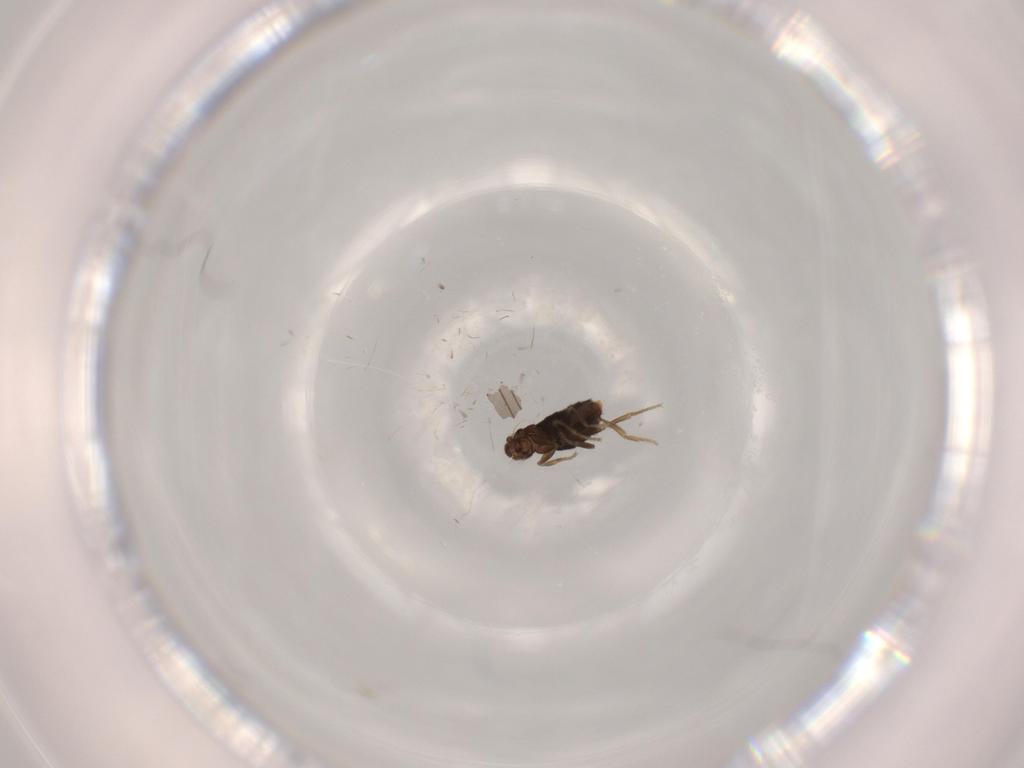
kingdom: Animalia
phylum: Arthropoda
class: Insecta
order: Diptera
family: Phoridae
